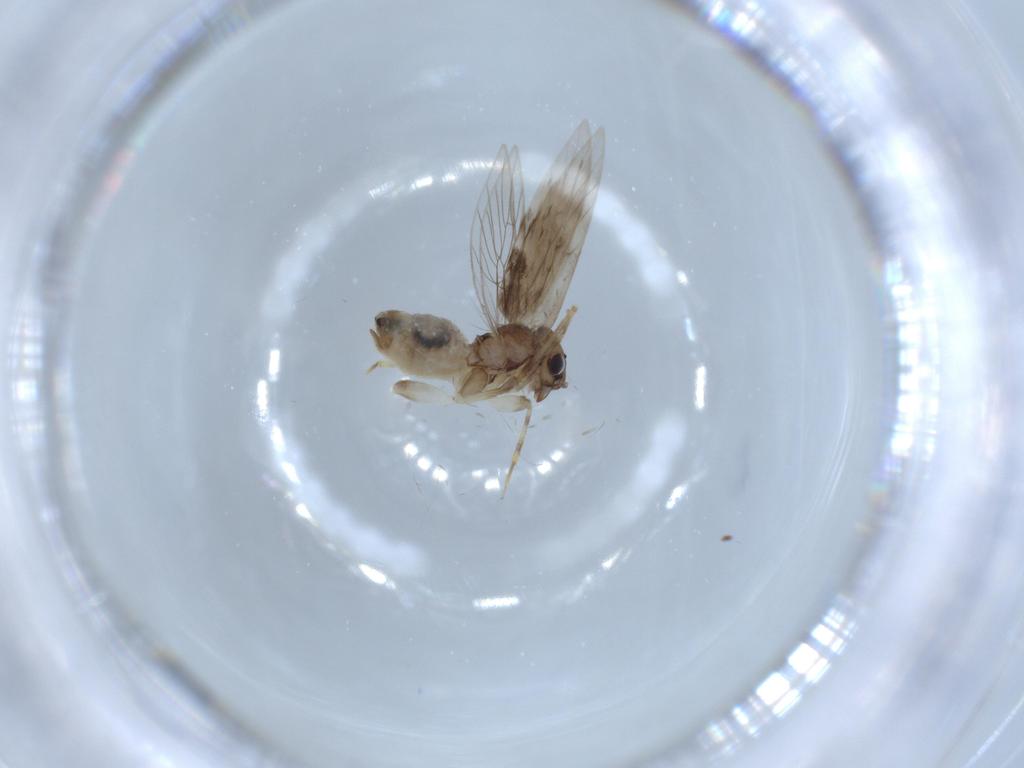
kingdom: Animalia
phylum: Arthropoda
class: Insecta
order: Psocodea
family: Lepidopsocidae
